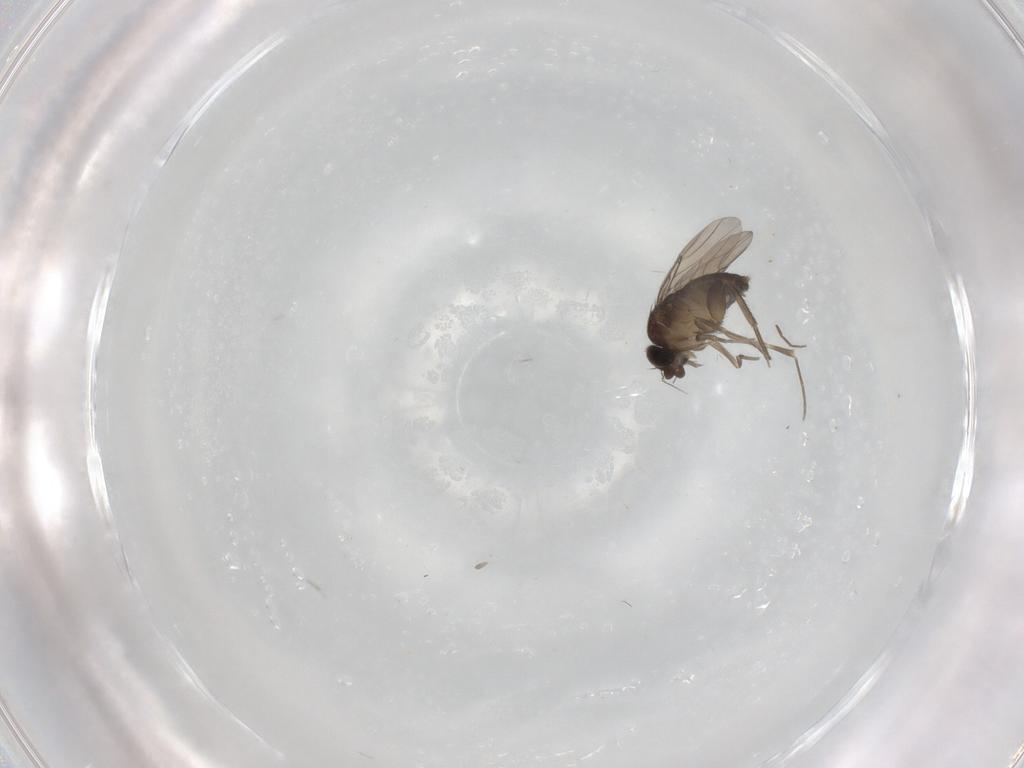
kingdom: Animalia
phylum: Arthropoda
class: Insecta
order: Diptera
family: Phoridae
